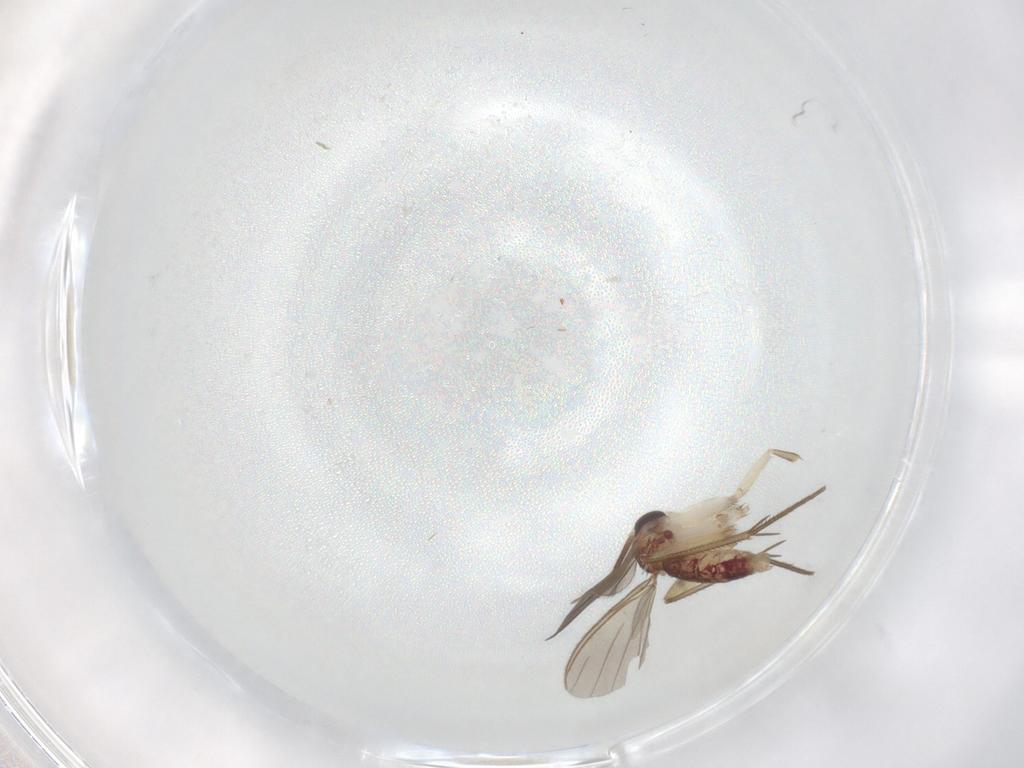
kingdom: Animalia
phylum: Arthropoda
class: Insecta
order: Diptera
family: Mycetophilidae
